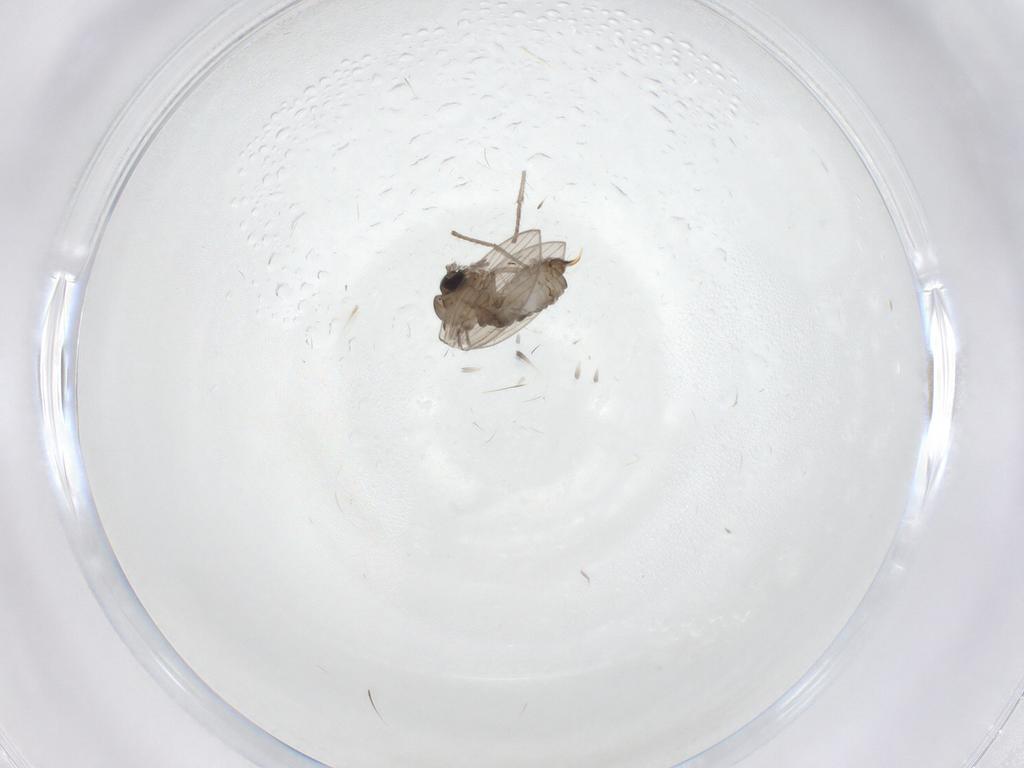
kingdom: Animalia
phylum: Arthropoda
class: Insecta
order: Diptera
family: Psychodidae
